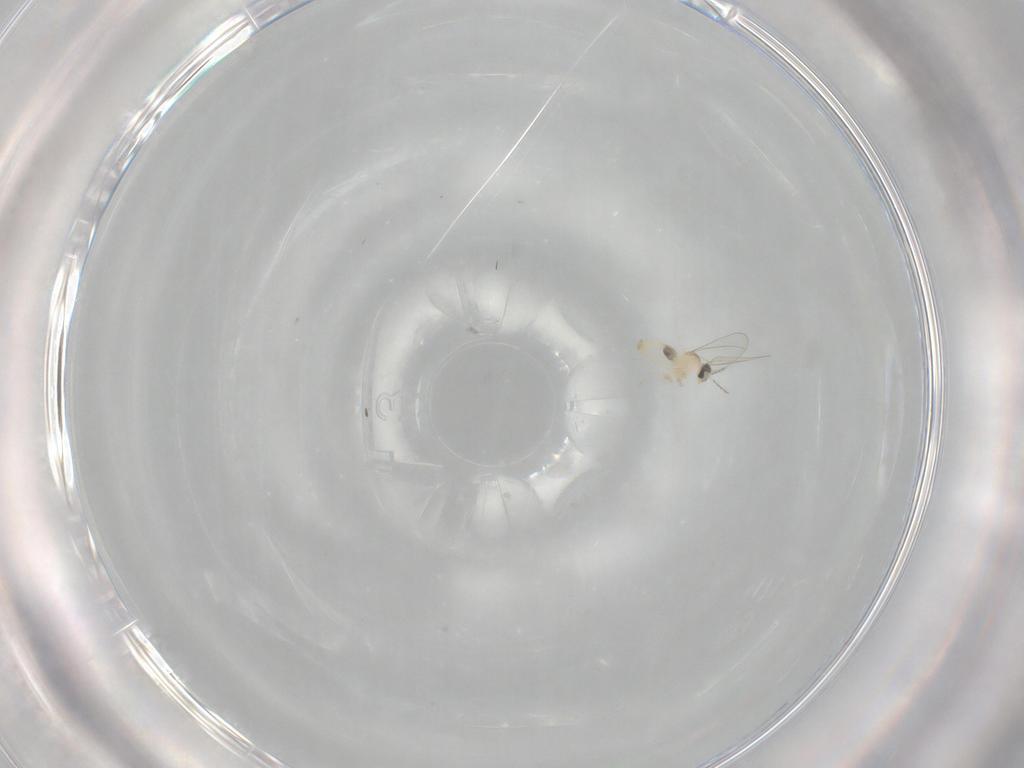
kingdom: Animalia
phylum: Arthropoda
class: Insecta
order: Diptera
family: Cecidomyiidae
